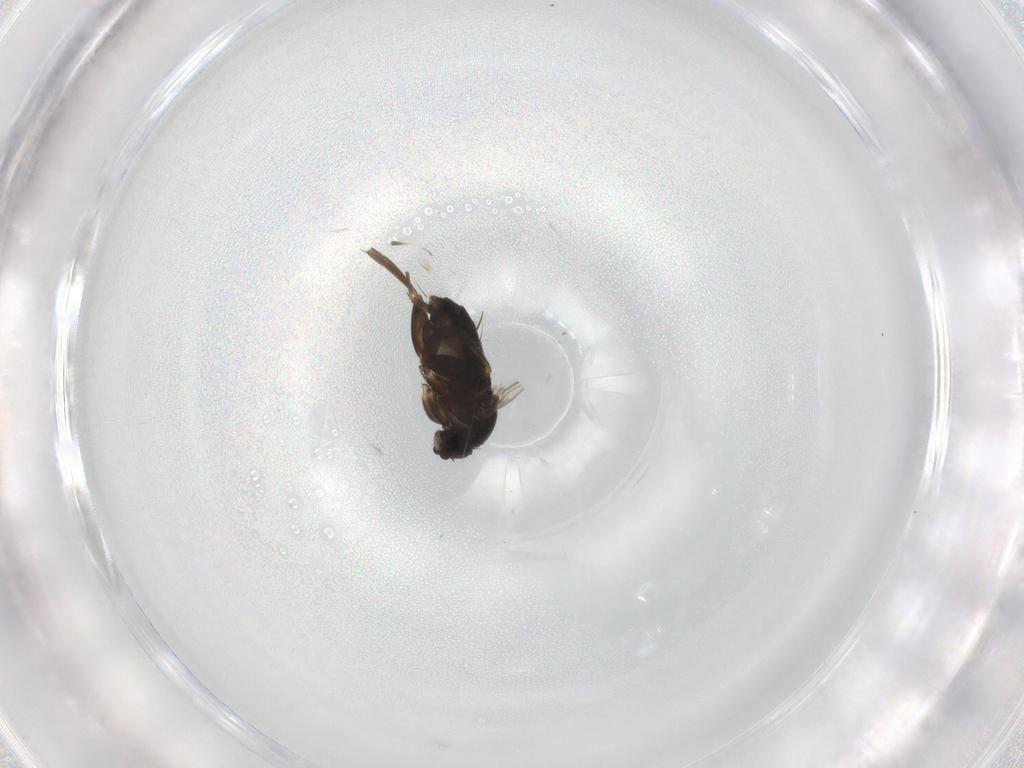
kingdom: Animalia
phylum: Arthropoda
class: Insecta
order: Diptera
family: Phoridae
